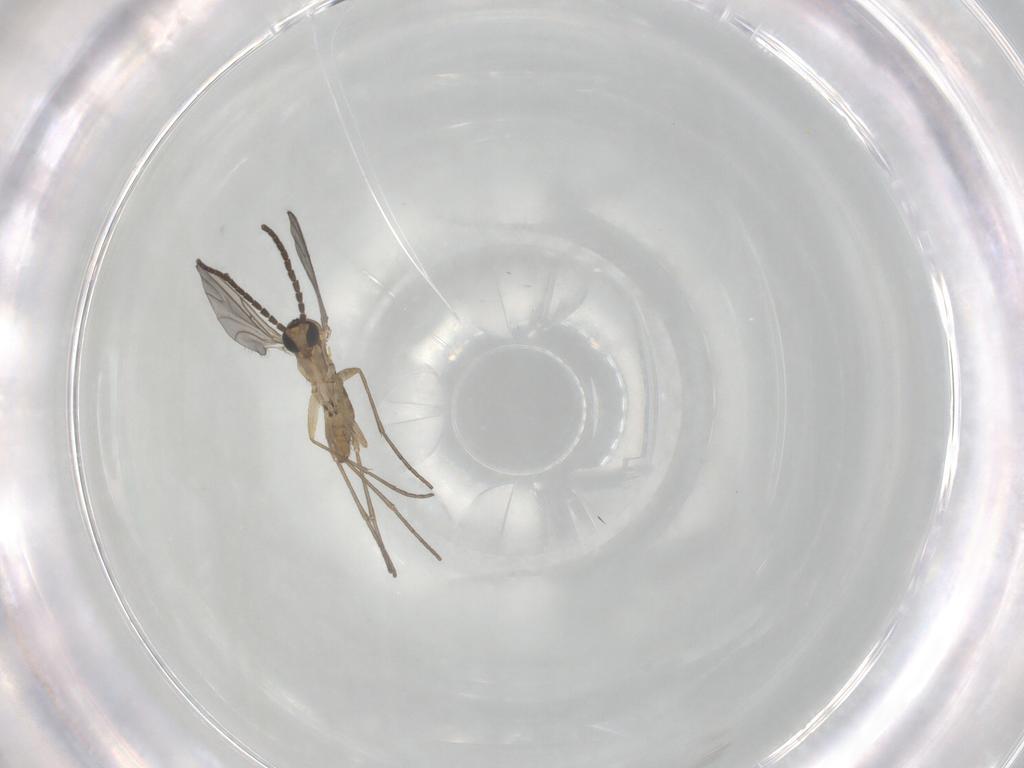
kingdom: Animalia
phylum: Arthropoda
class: Insecta
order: Diptera
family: Sciaridae
